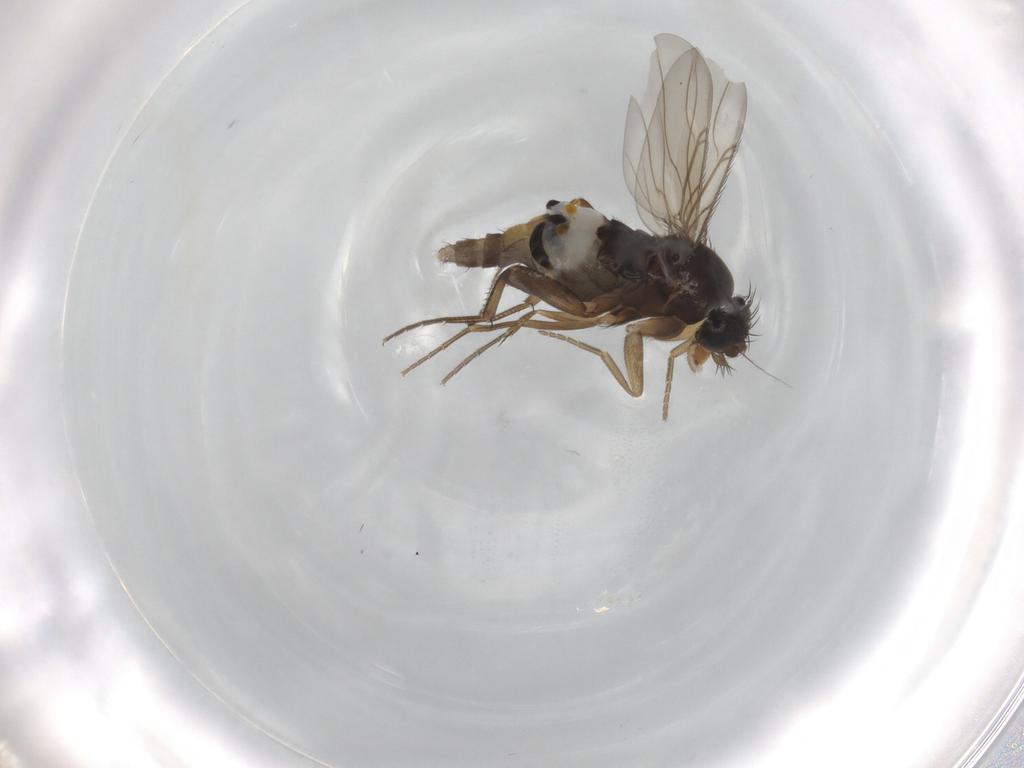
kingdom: Animalia
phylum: Arthropoda
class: Insecta
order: Diptera
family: Phoridae
